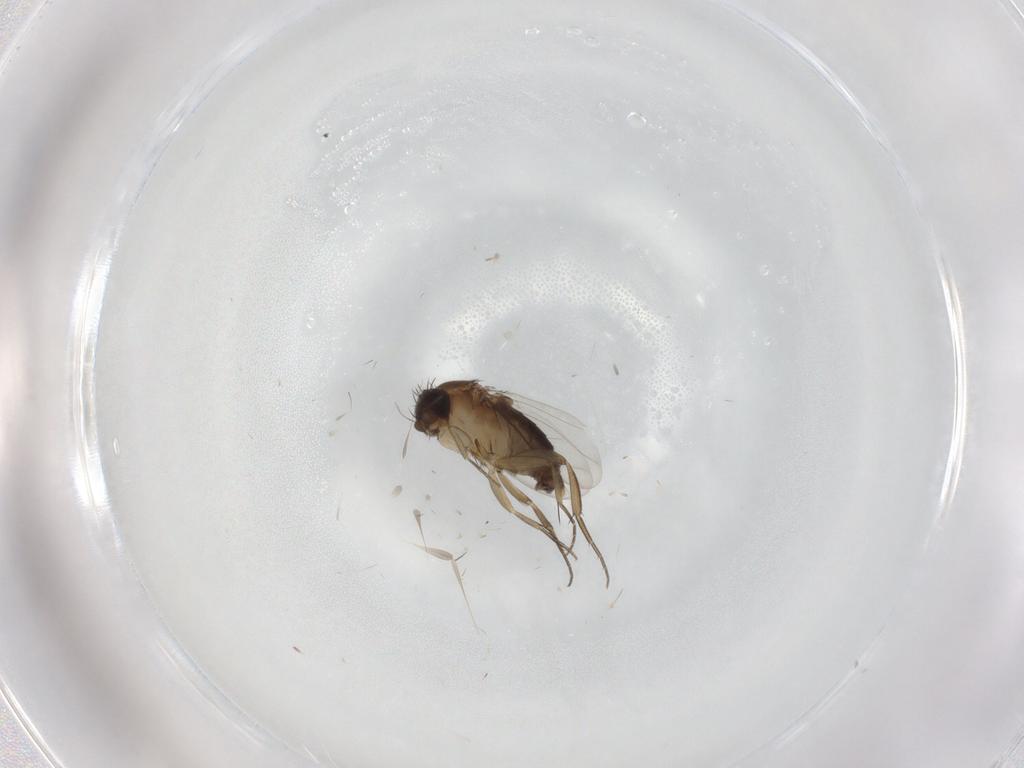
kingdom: Animalia
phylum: Arthropoda
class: Insecta
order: Diptera
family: Phoridae
